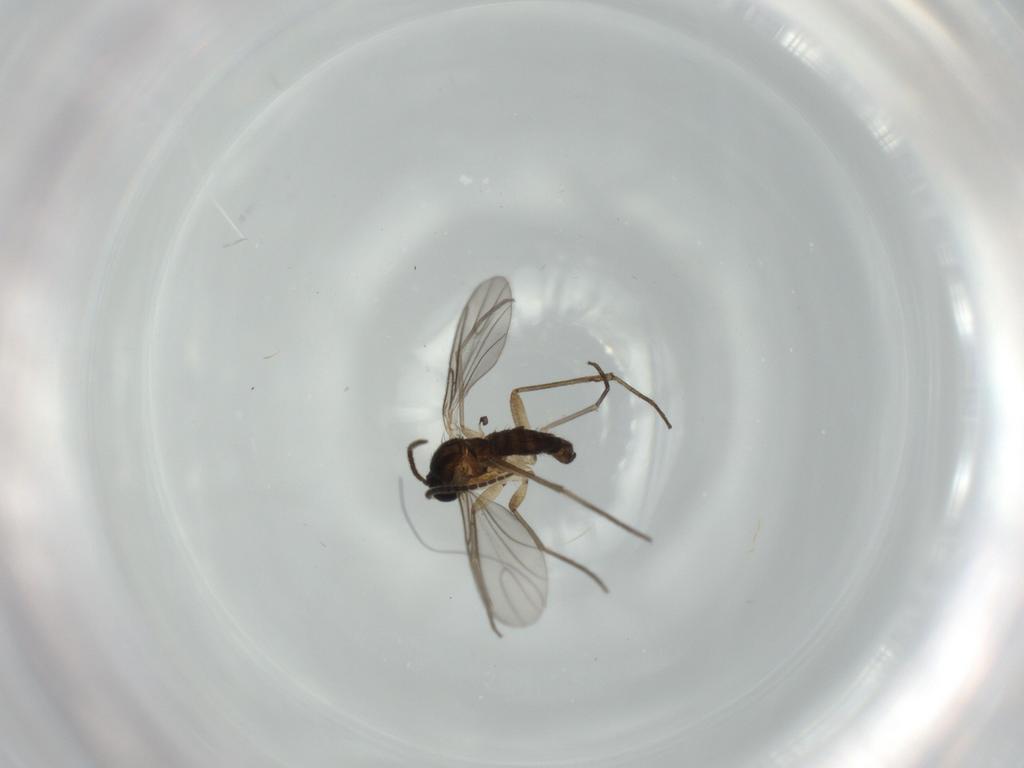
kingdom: Animalia
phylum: Arthropoda
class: Insecta
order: Diptera
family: Sciaridae
